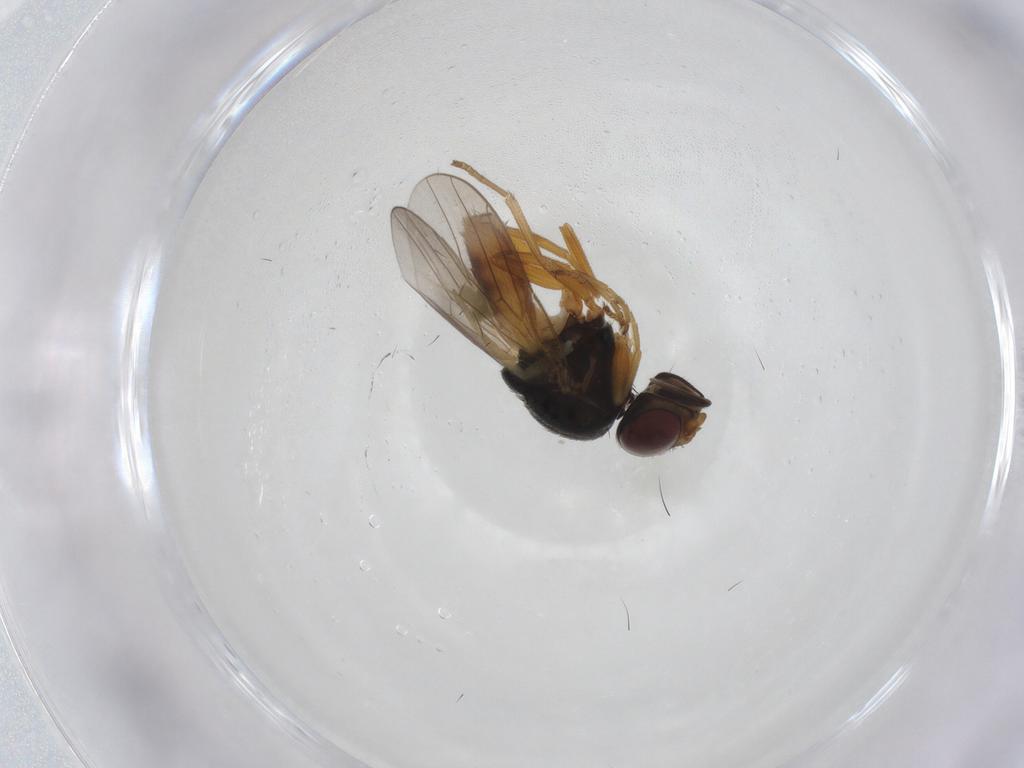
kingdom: Animalia
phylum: Arthropoda
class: Insecta
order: Diptera
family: Chloropidae
